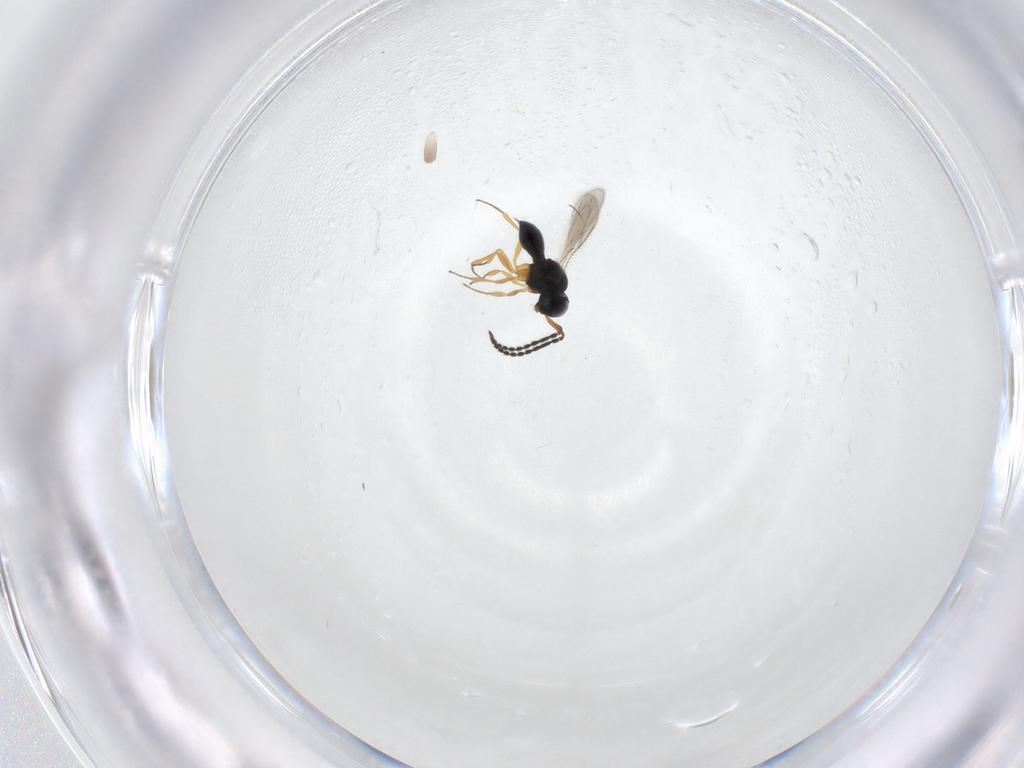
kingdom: Animalia
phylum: Arthropoda
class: Insecta
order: Hymenoptera
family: Scelionidae
